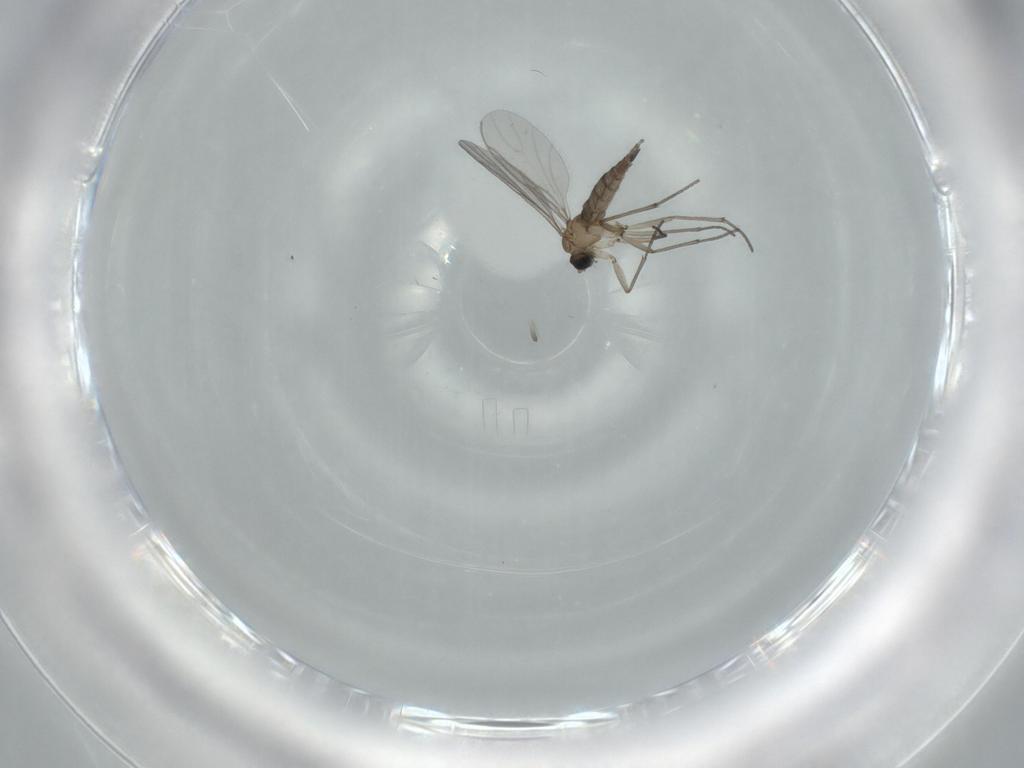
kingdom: Animalia
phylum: Arthropoda
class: Insecta
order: Diptera
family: Sciaridae
